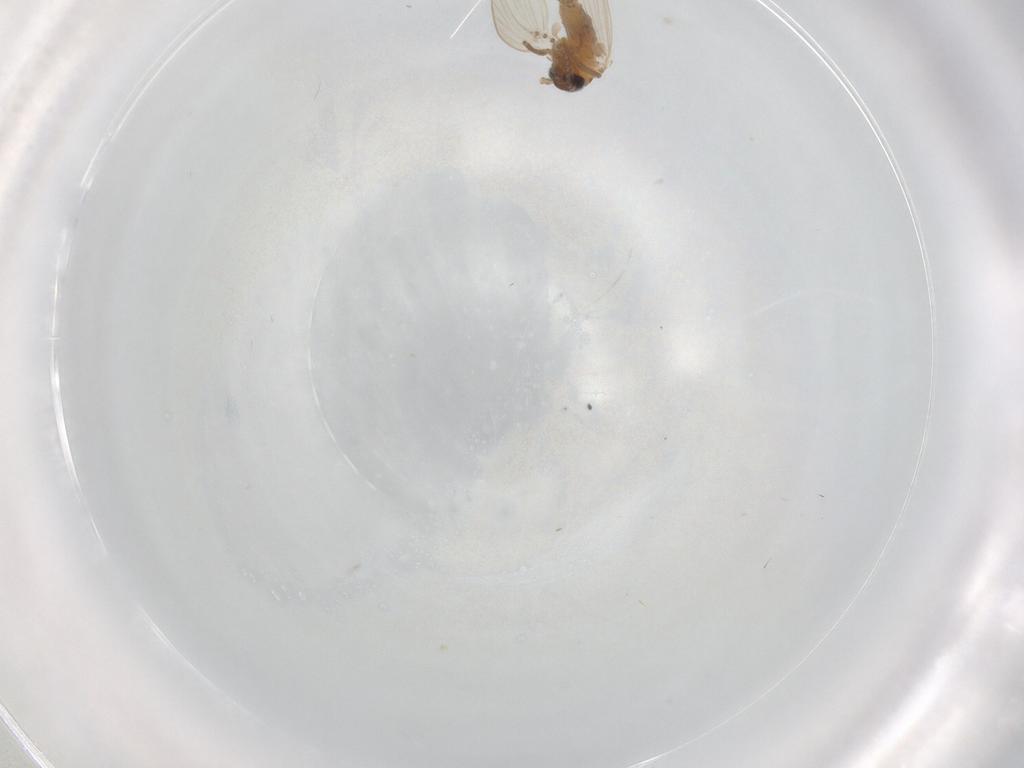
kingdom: Animalia
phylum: Arthropoda
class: Insecta
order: Diptera
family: Psychodidae
